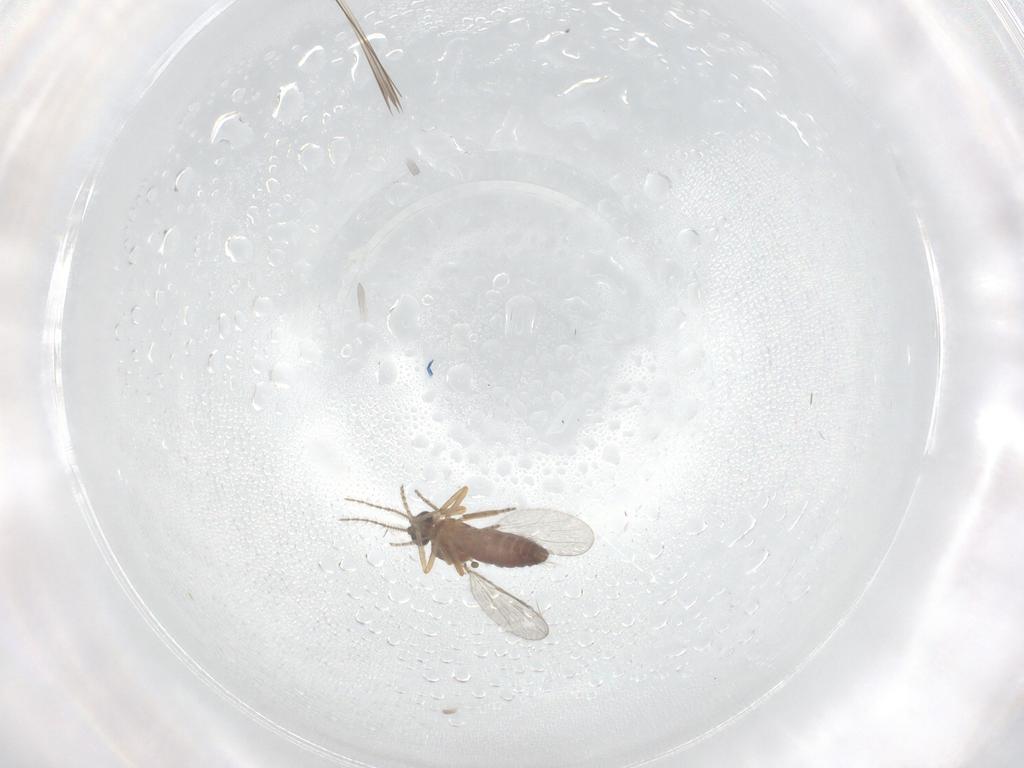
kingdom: Animalia
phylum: Arthropoda
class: Insecta
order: Diptera
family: Ceratopogonidae
